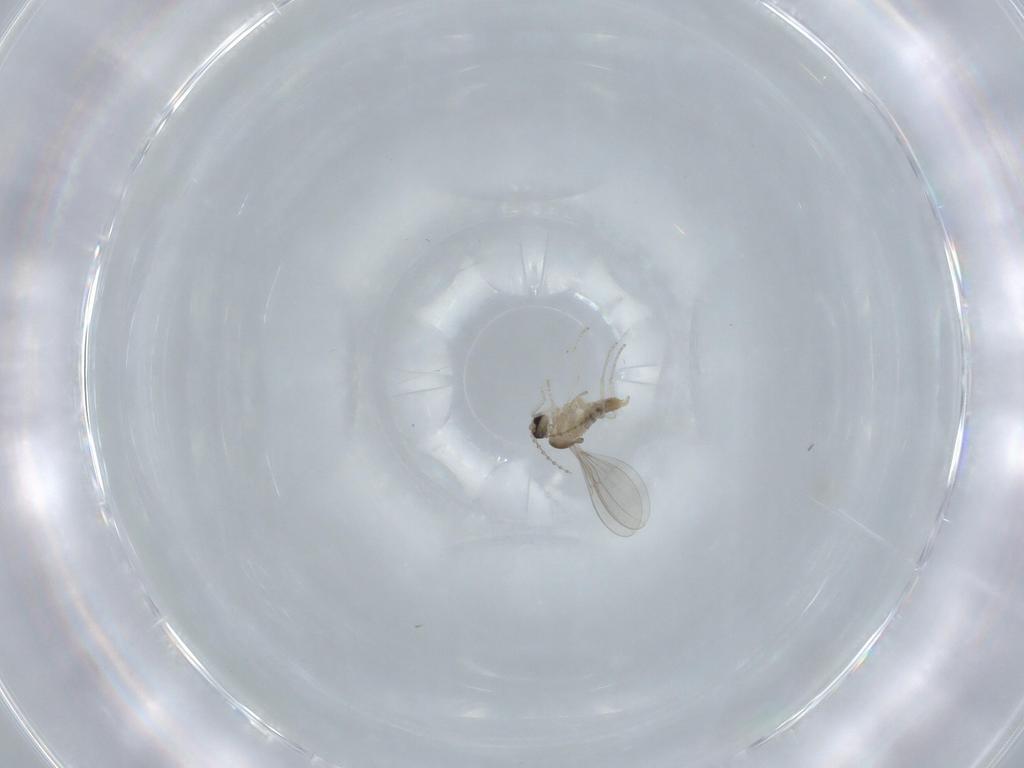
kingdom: Animalia
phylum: Arthropoda
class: Insecta
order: Diptera
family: Cecidomyiidae
